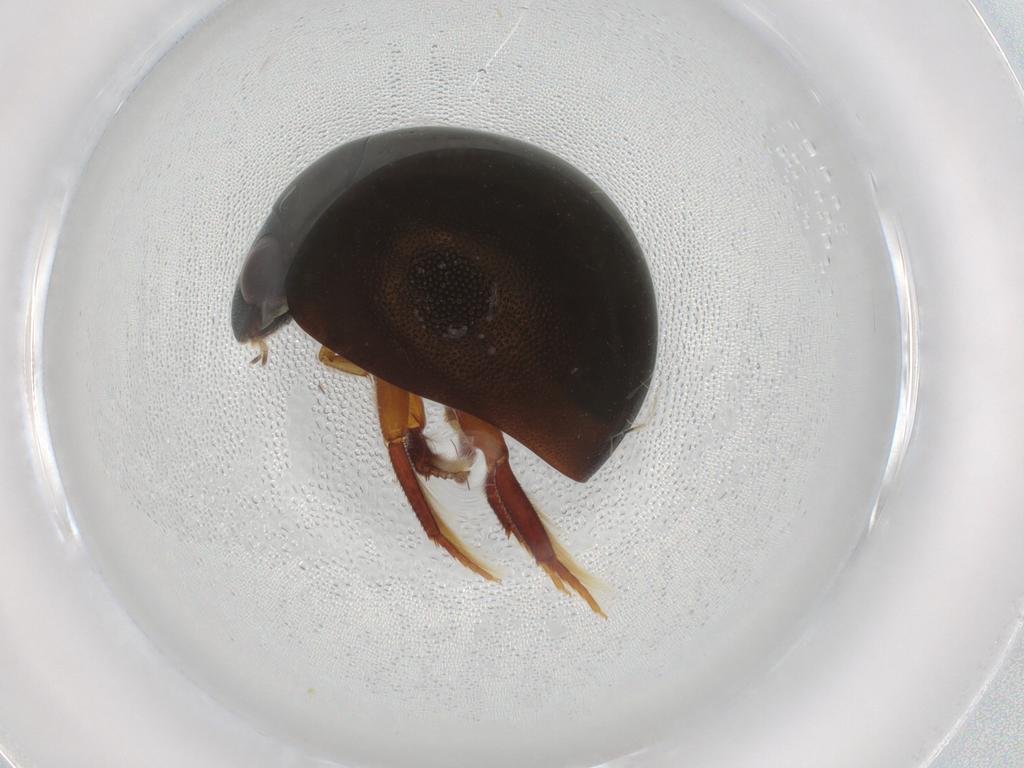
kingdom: Animalia
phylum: Arthropoda
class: Insecta
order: Coleoptera
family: Hydrophilidae
